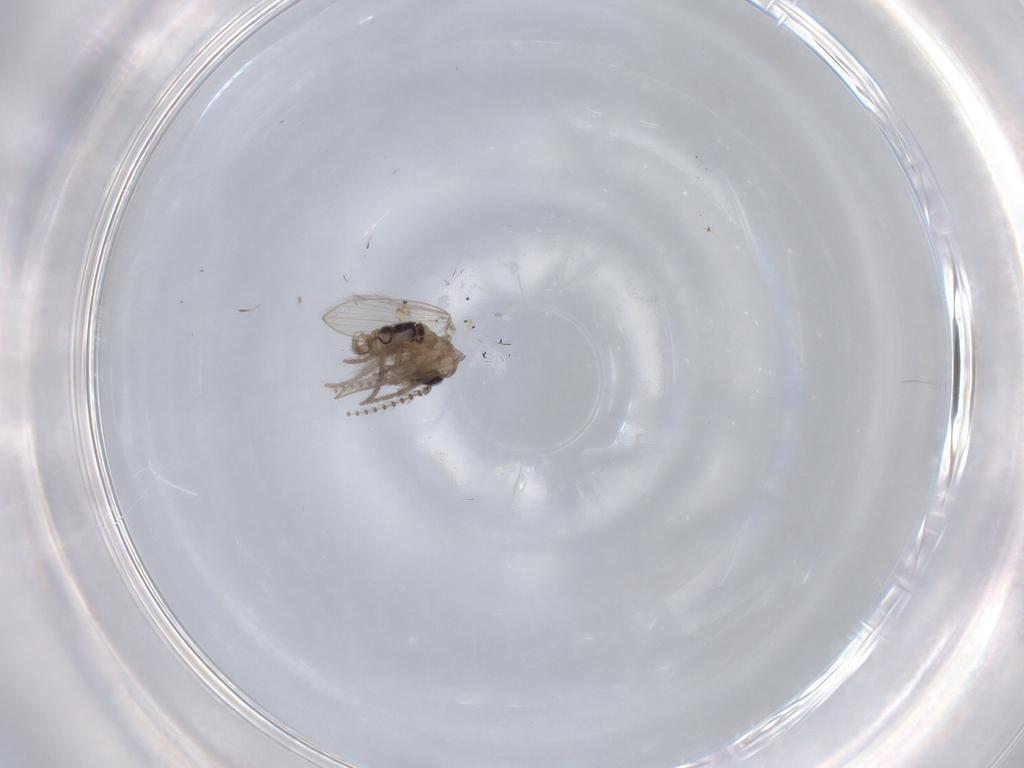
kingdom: Animalia
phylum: Arthropoda
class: Insecta
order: Diptera
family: Psychodidae
